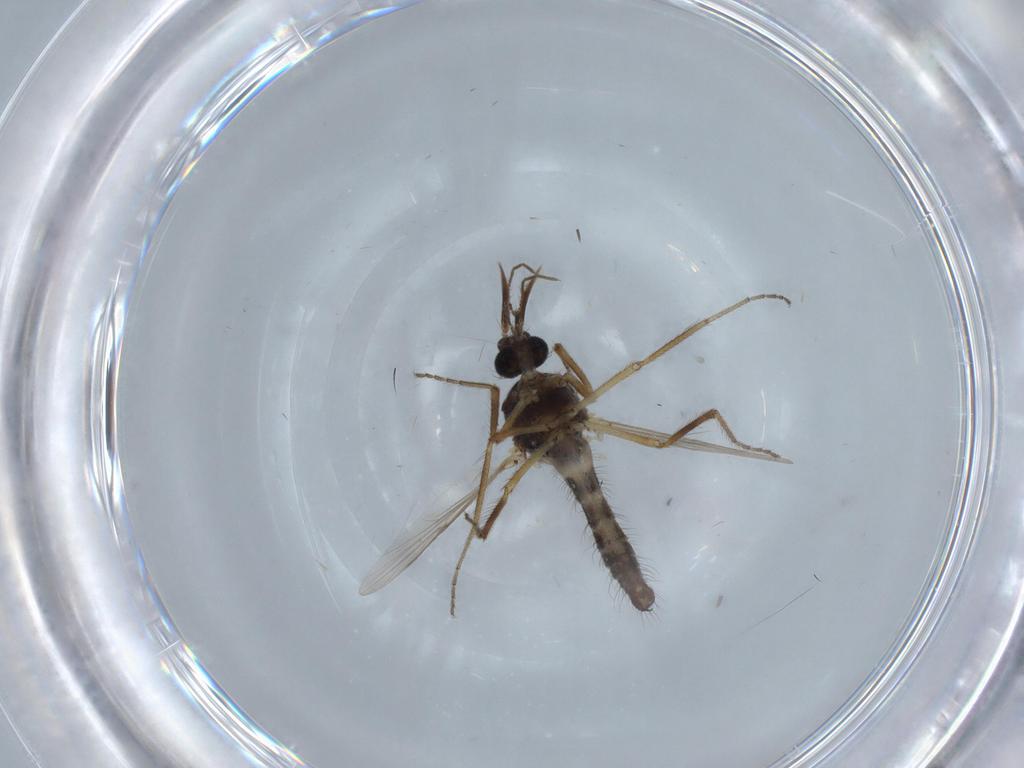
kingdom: Animalia
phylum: Arthropoda
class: Insecta
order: Diptera
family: Ceratopogonidae
